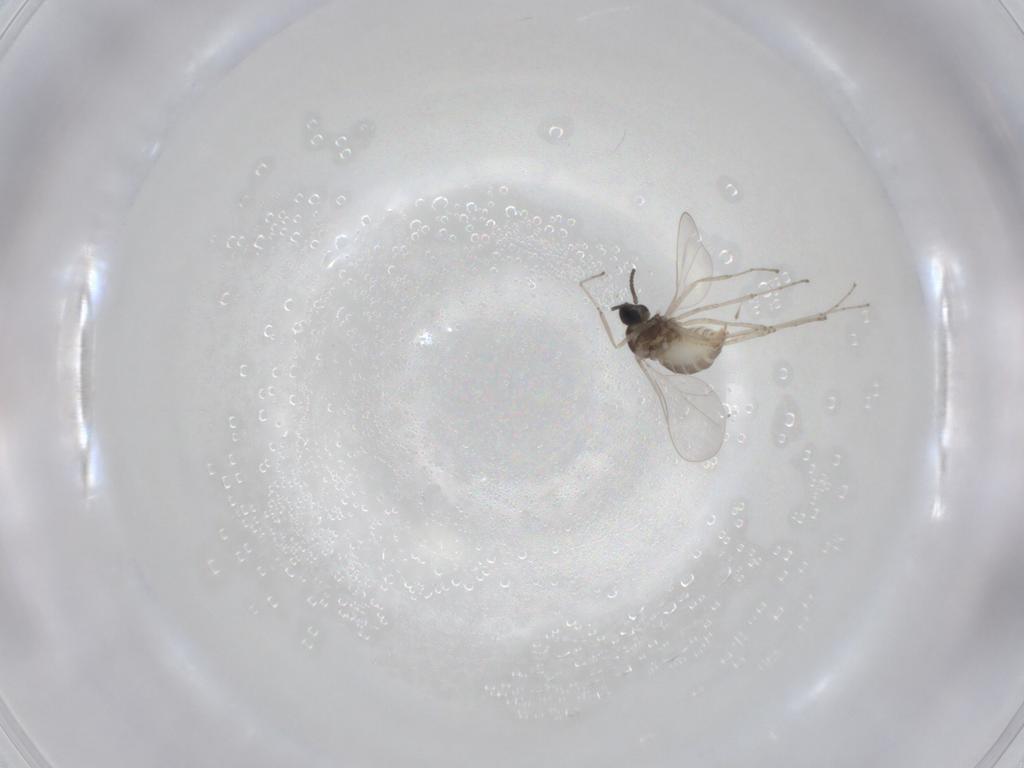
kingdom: Animalia
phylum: Arthropoda
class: Insecta
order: Diptera
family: Cecidomyiidae
